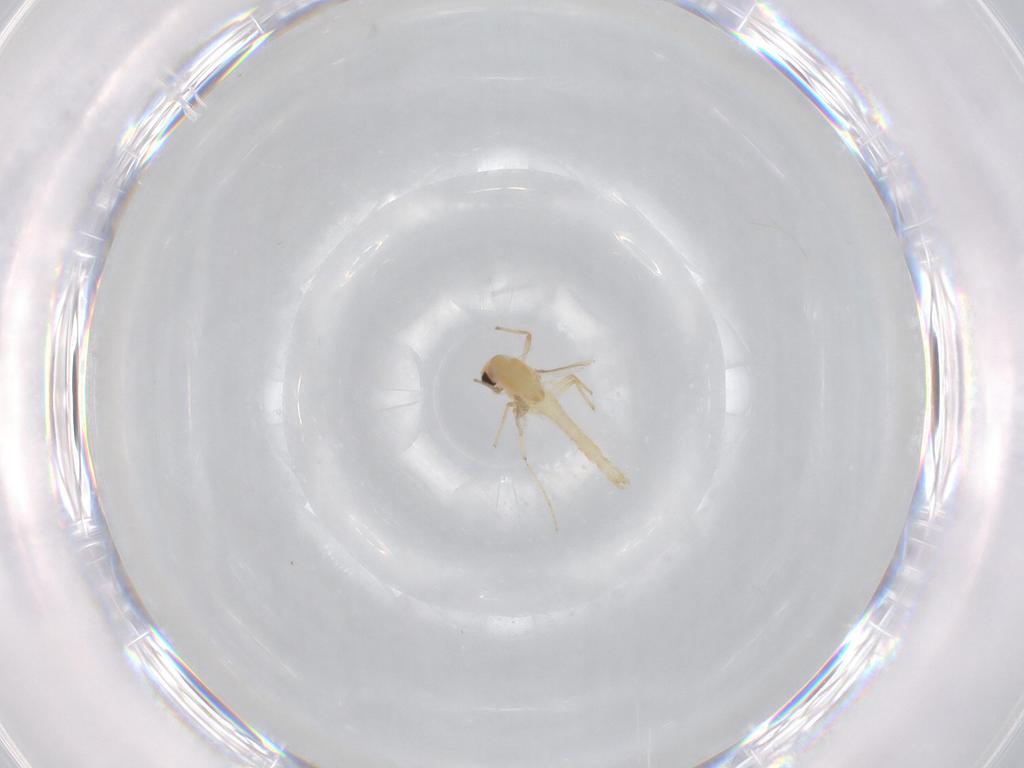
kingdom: Animalia
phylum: Arthropoda
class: Insecta
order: Diptera
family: Chironomidae
